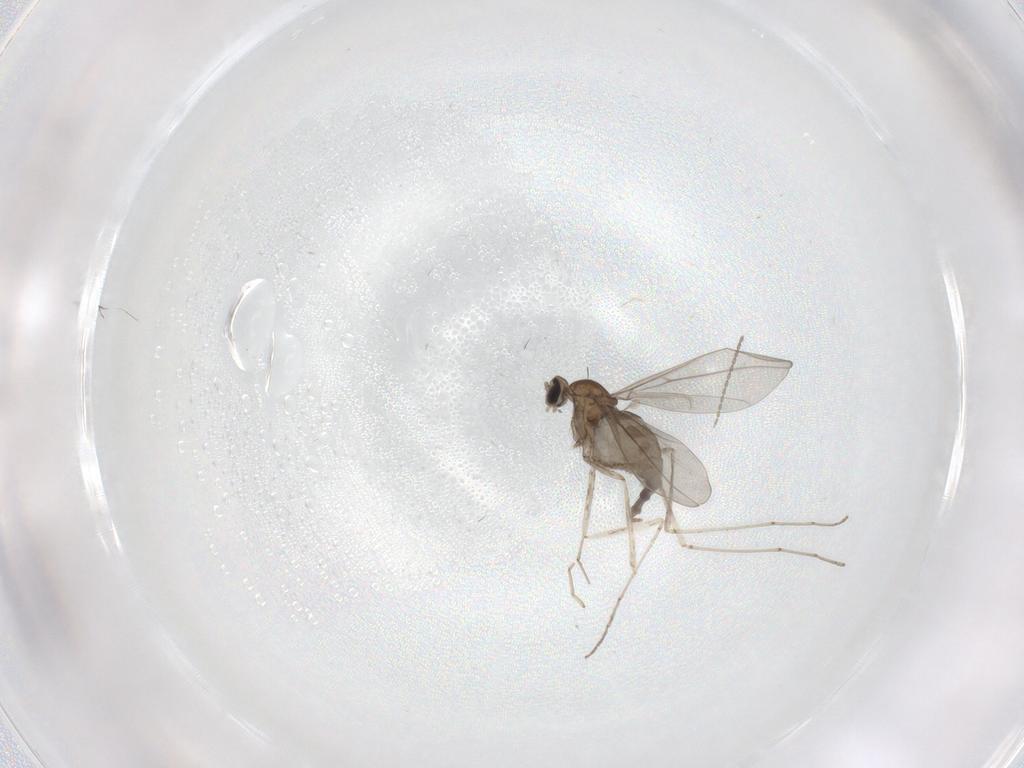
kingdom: Animalia
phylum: Arthropoda
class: Insecta
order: Diptera
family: Cecidomyiidae
